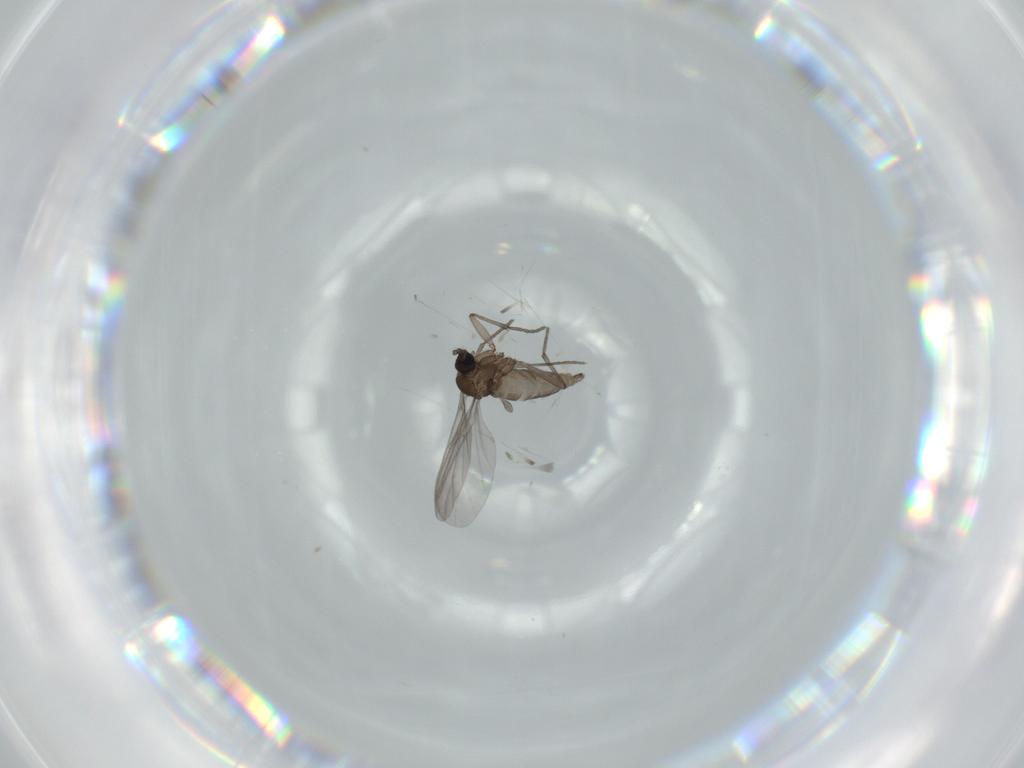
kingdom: Animalia
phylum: Arthropoda
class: Insecta
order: Diptera
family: Sciaridae
